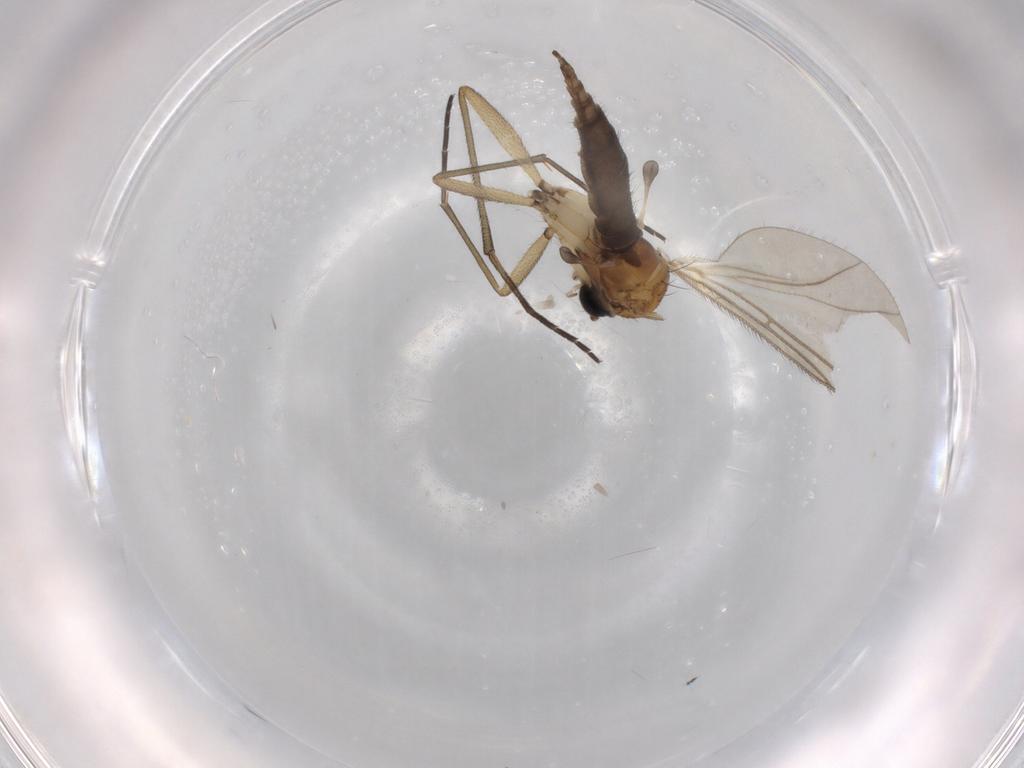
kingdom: Animalia
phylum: Arthropoda
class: Insecta
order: Diptera
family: Sciaridae
